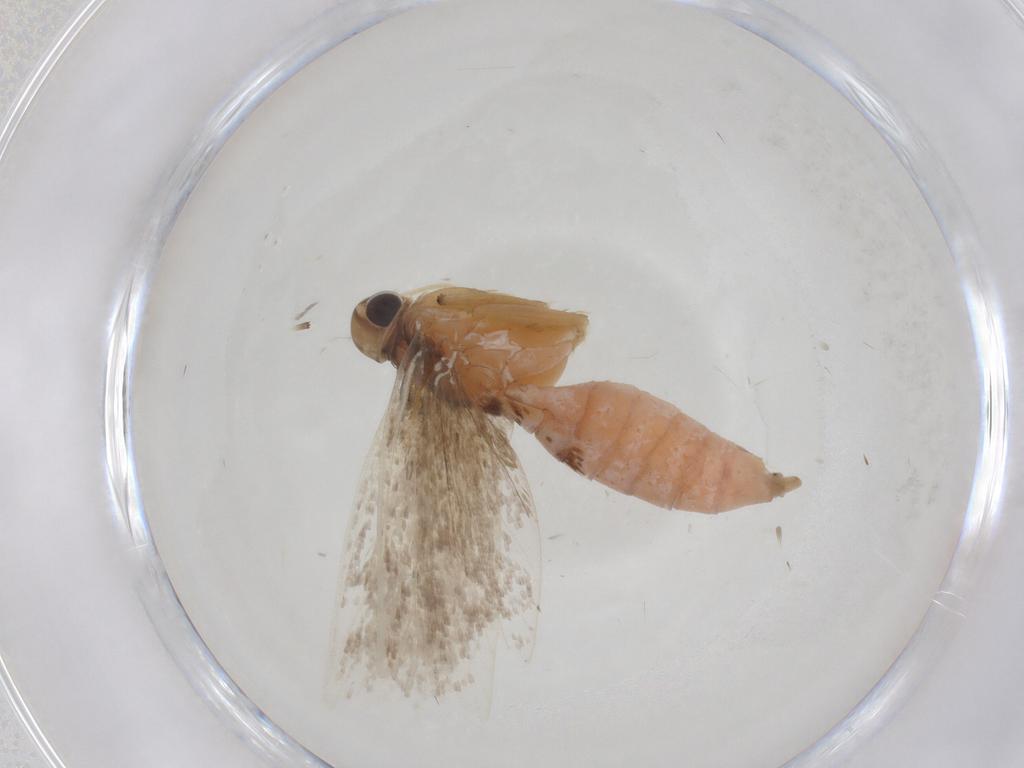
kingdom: Animalia
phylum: Arthropoda
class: Insecta
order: Lepidoptera
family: Gelechiidae
